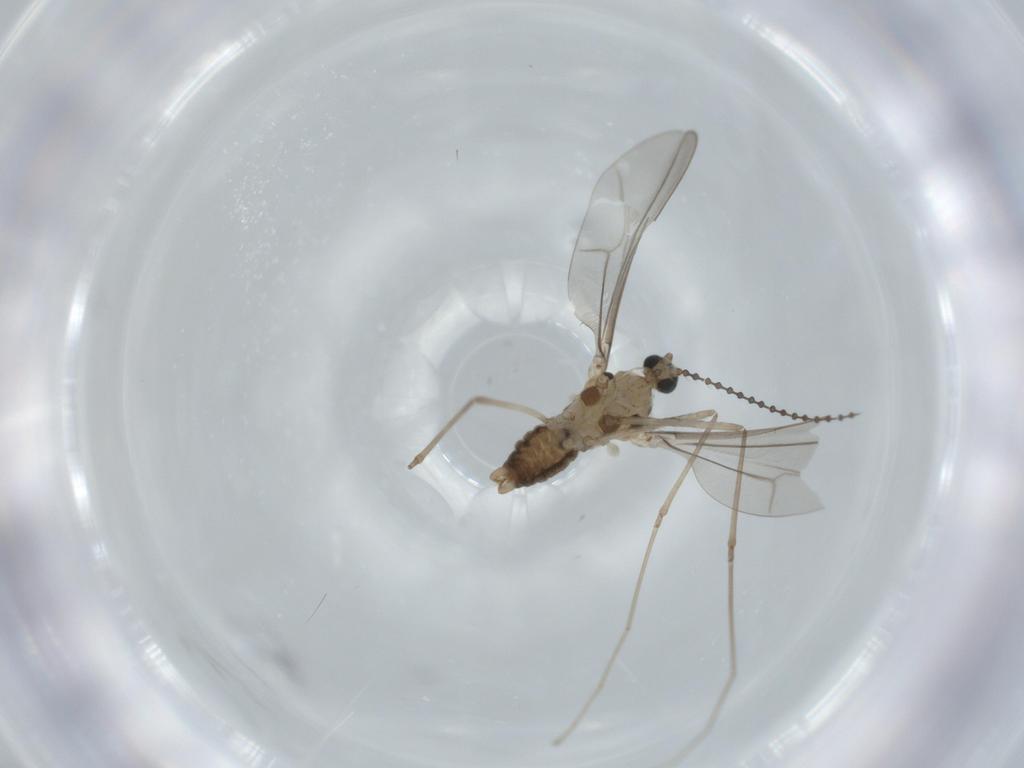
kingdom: Animalia
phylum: Arthropoda
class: Insecta
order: Diptera
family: Cecidomyiidae
